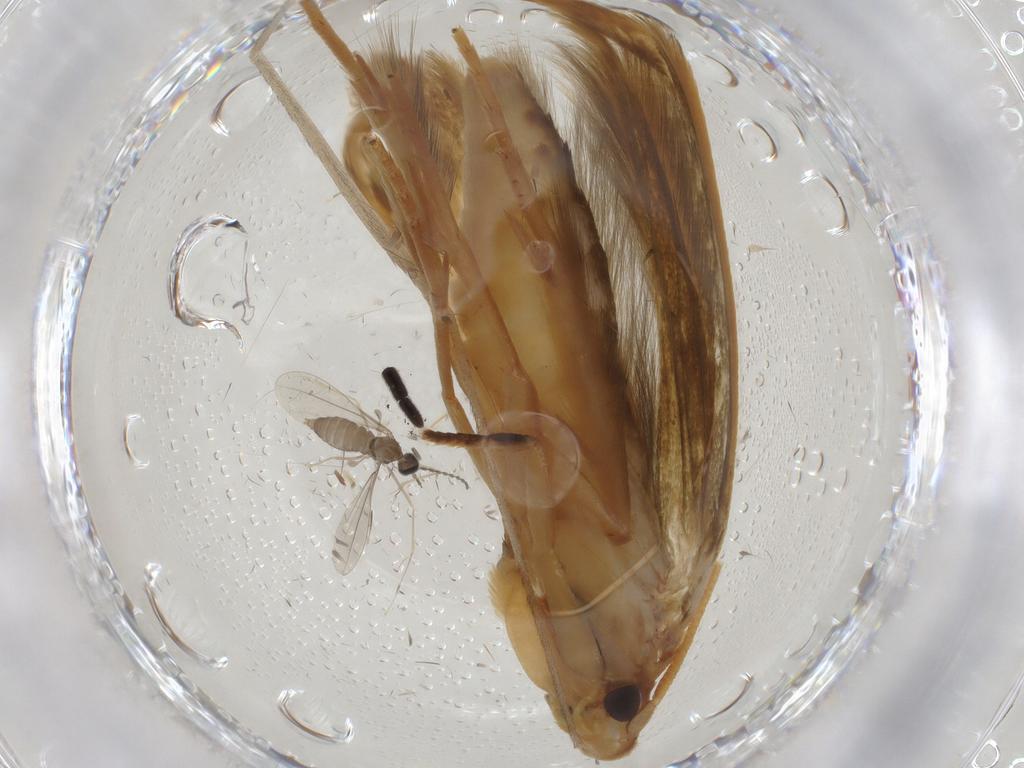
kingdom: Animalia
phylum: Arthropoda
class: Insecta
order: Lepidoptera
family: Tineidae
